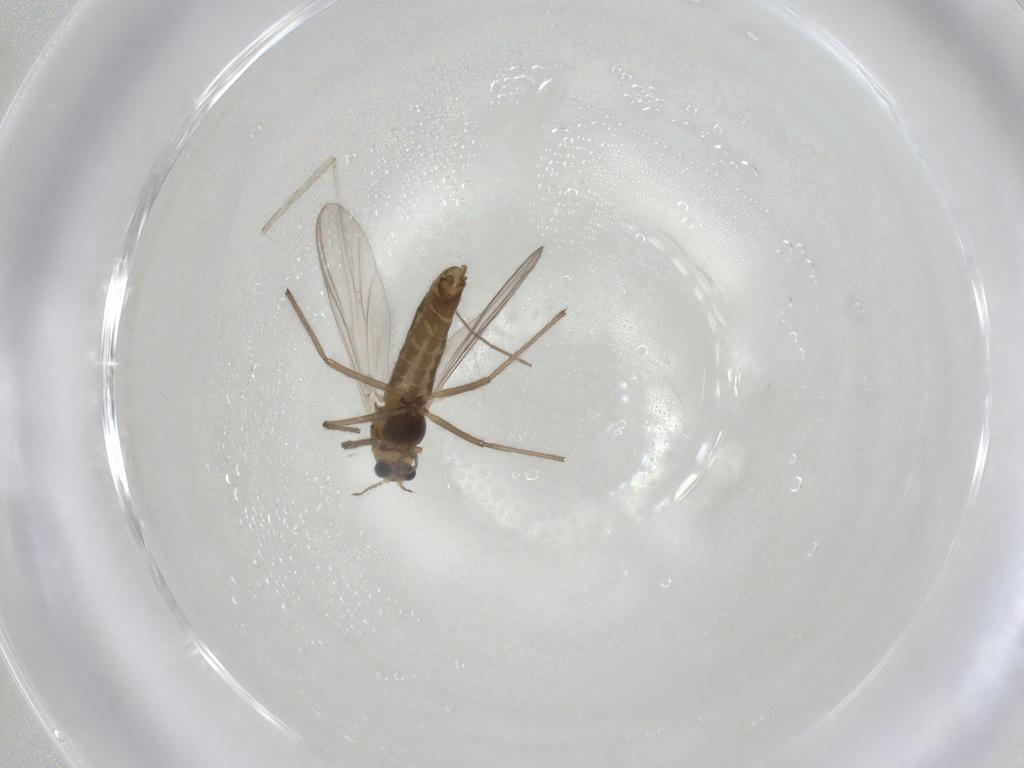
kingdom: Animalia
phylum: Arthropoda
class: Insecta
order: Diptera
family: Chironomidae
